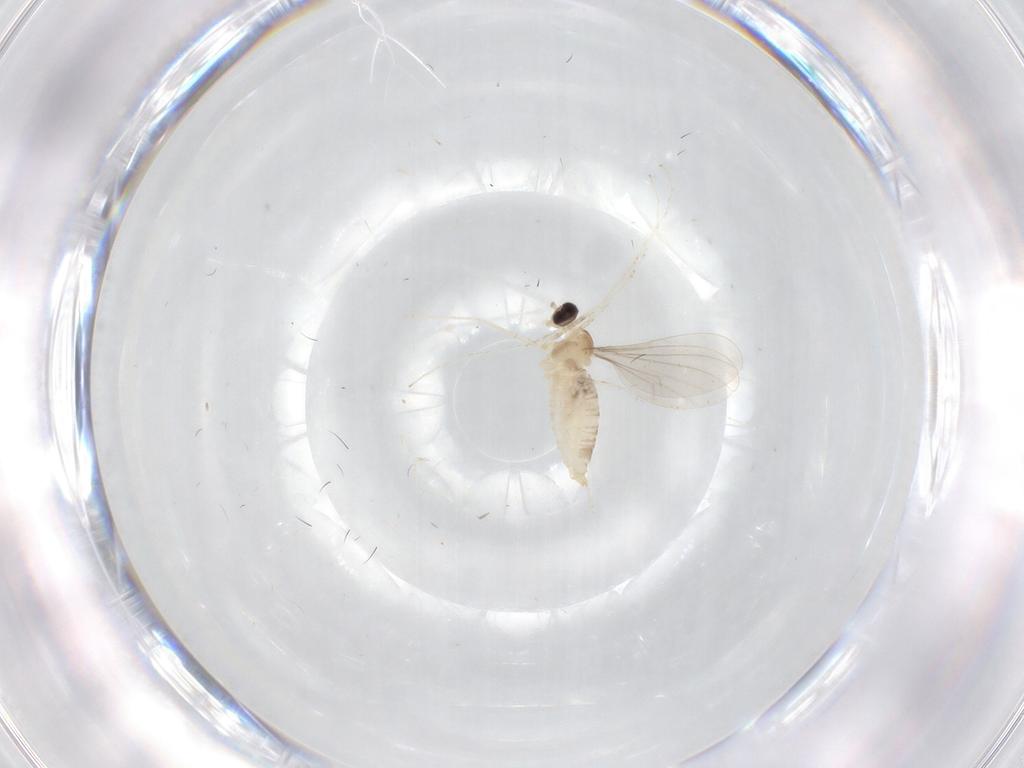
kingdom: Animalia
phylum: Arthropoda
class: Insecta
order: Diptera
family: Cecidomyiidae
